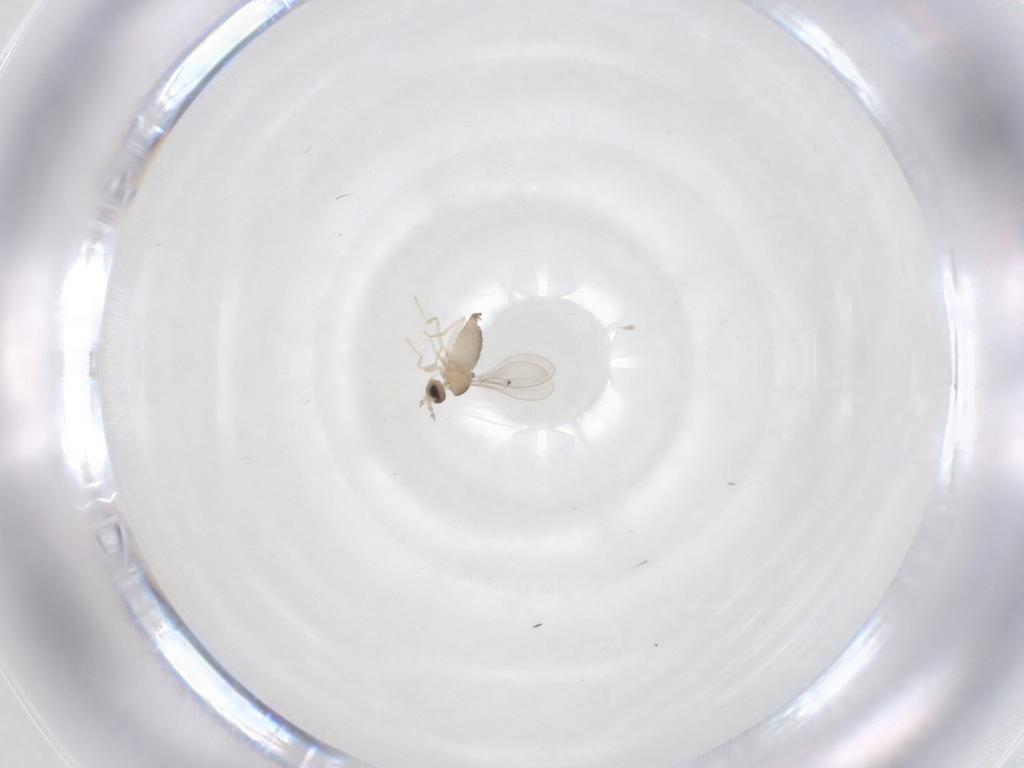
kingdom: Animalia
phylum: Arthropoda
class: Insecta
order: Diptera
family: Cecidomyiidae
